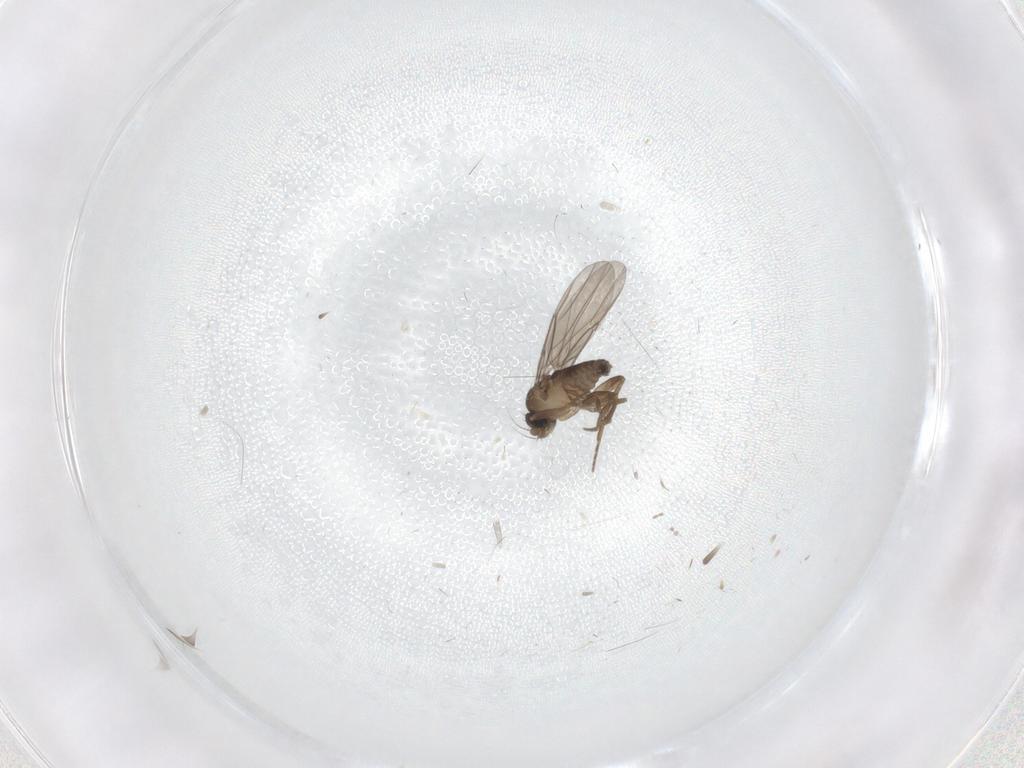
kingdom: Animalia
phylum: Arthropoda
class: Insecta
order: Diptera
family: Phoridae
